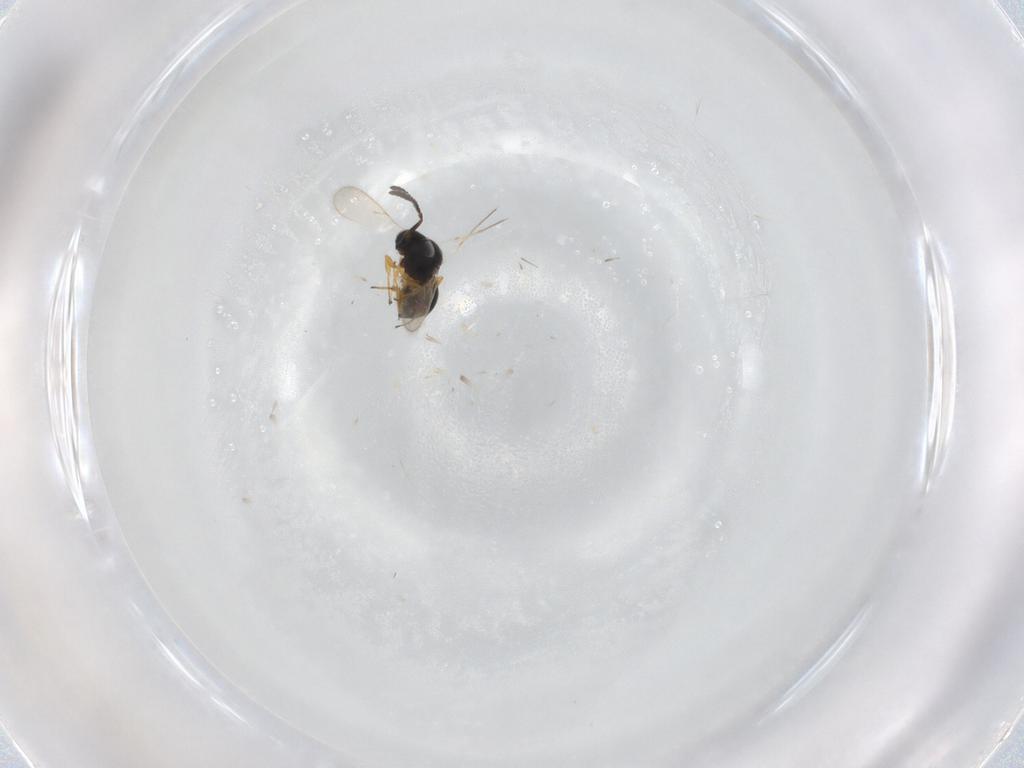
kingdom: Animalia
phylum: Arthropoda
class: Insecta
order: Hymenoptera
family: Scelionidae
